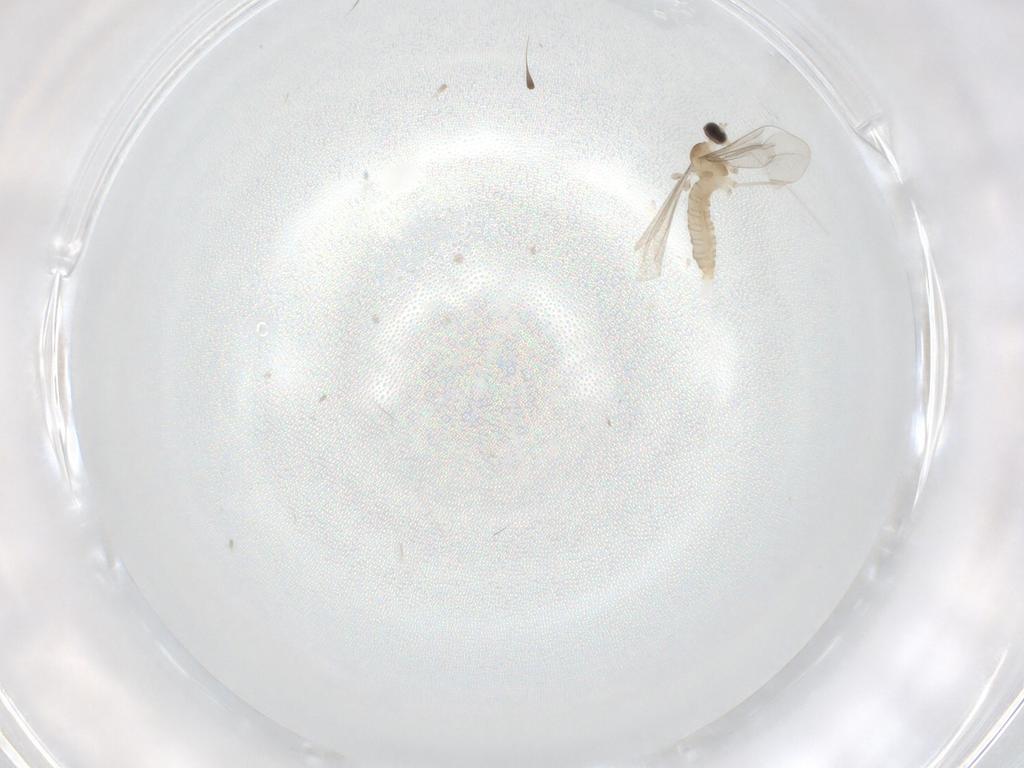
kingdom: Animalia
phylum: Arthropoda
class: Insecta
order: Diptera
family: Ceratopogonidae
